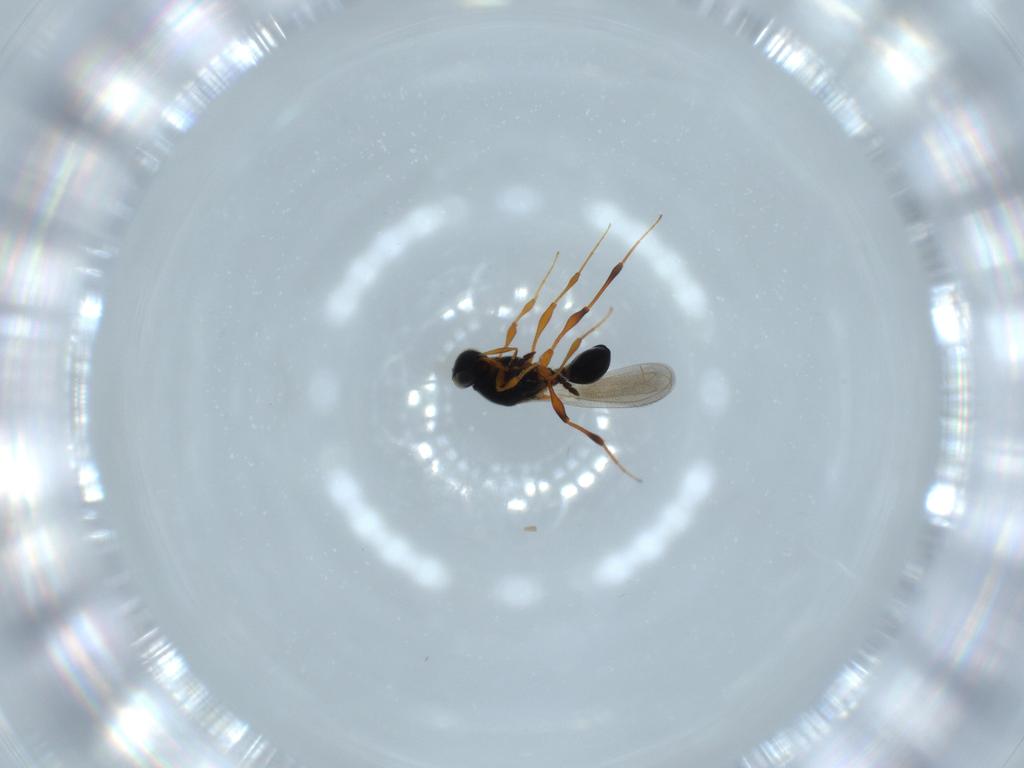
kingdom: Animalia
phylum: Arthropoda
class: Insecta
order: Hymenoptera
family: Platygastridae
